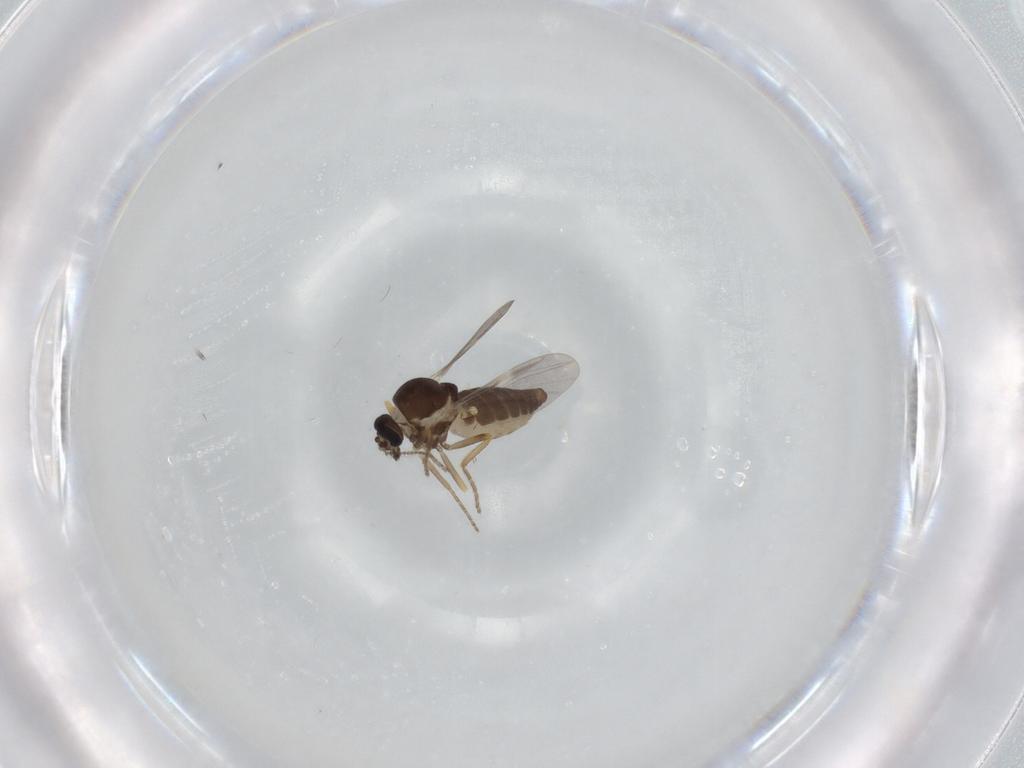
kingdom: Animalia
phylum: Arthropoda
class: Insecta
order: Diptera
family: Ceratopogonidae
